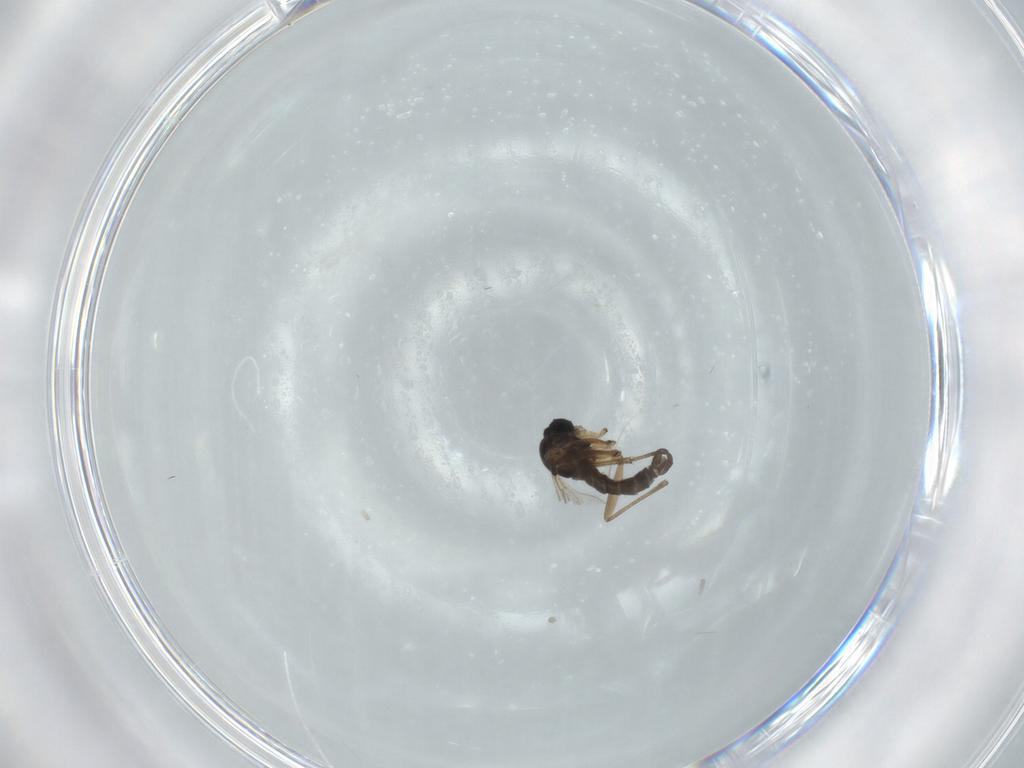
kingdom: Animalia
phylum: Arthropoda
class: Insecta
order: Diptera
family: Sciaridae
